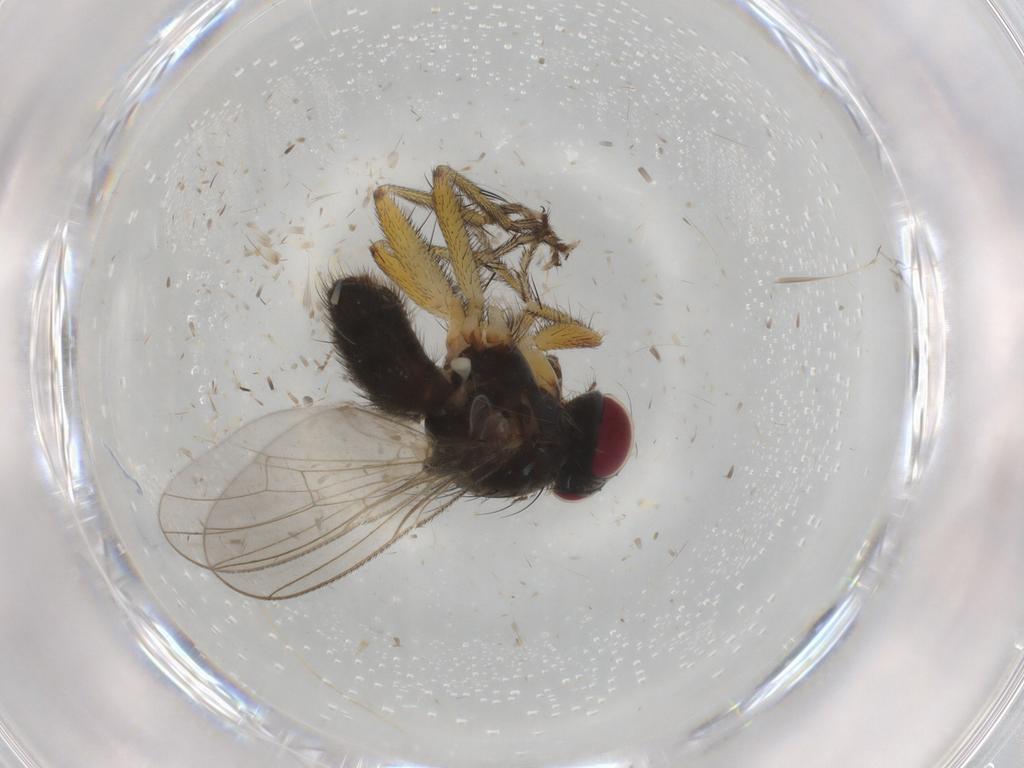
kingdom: Animalia
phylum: Arthropoda
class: Insecta
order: Diptera
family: Muscidae
